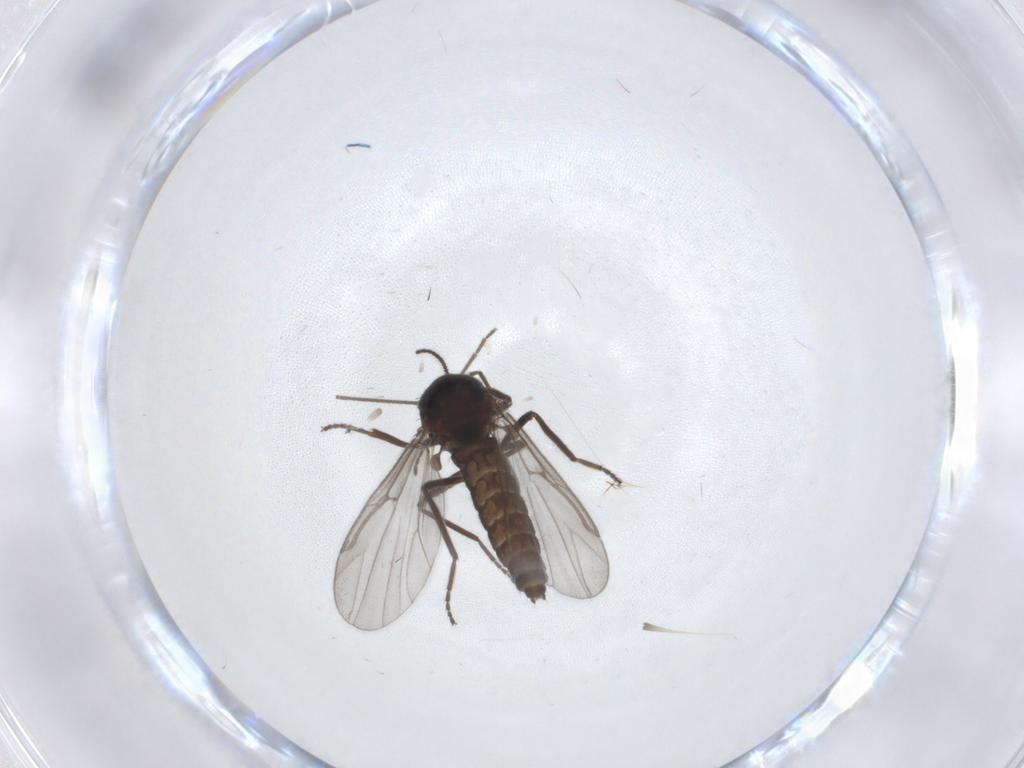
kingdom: Animalia
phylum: Arthropoda
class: Insecta
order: Diptera
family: Ceratopogonidae
